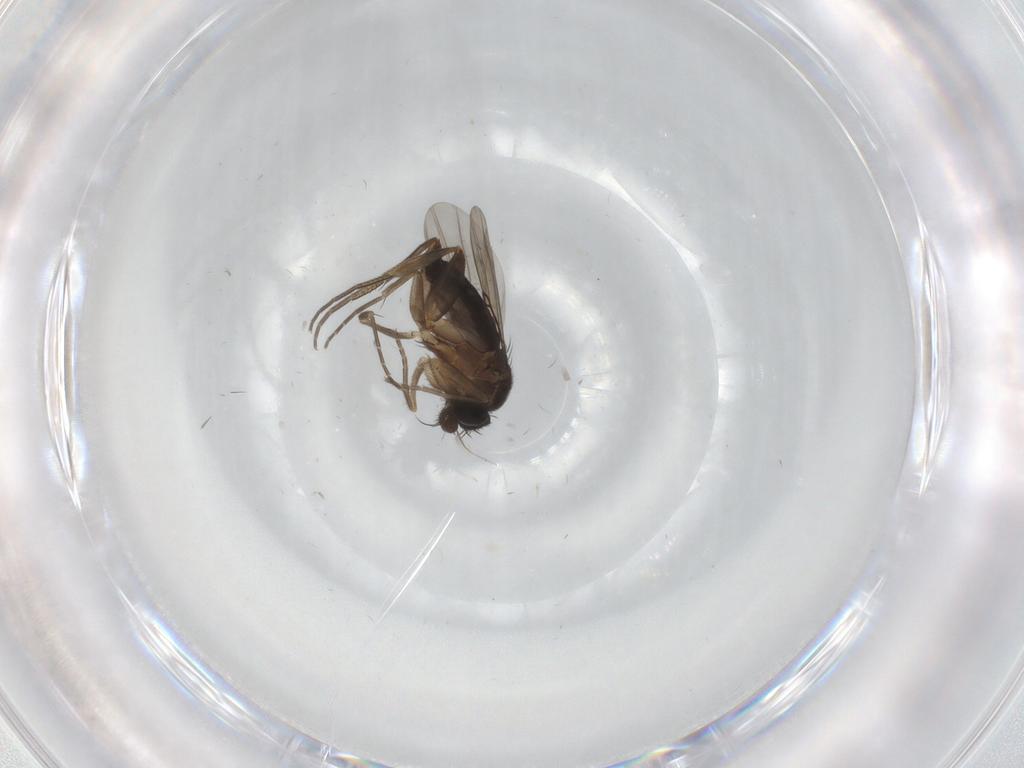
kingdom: Animalia
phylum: Arthropoda
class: Insecta
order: Diptera
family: Phoridae
